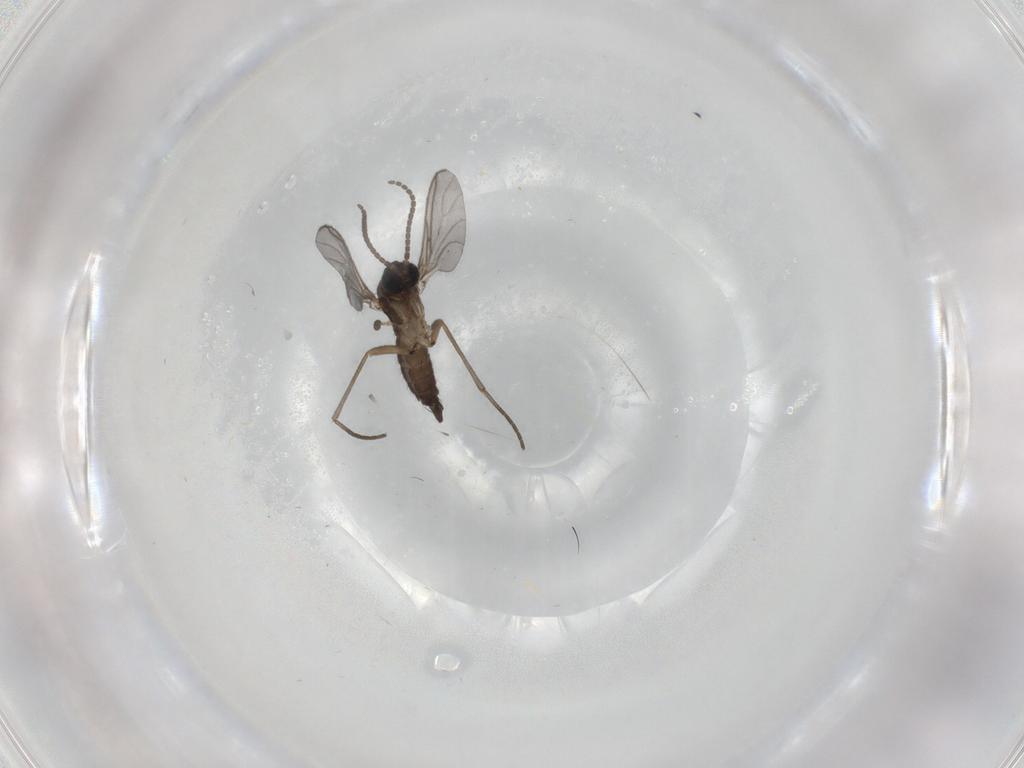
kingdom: Animalia
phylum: Arthropoda
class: Insecta
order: Diptera
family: Sciaridae
